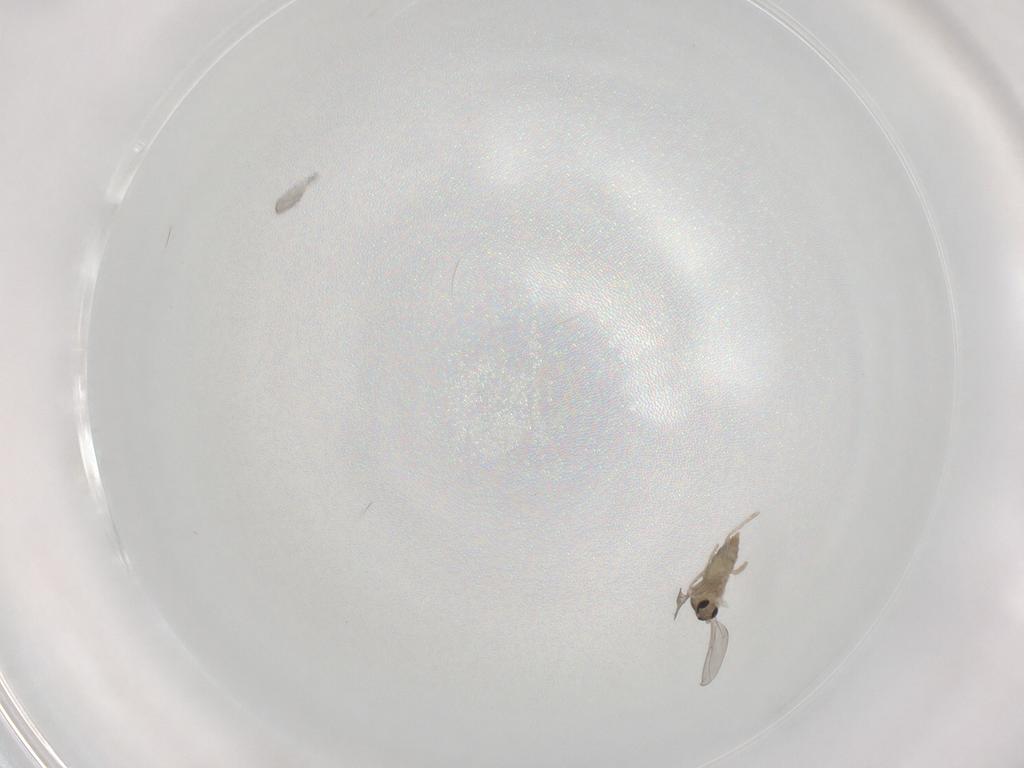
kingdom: Animalia
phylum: Arthropoda
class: Insecta
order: Diptera
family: Cecidomyiidae
